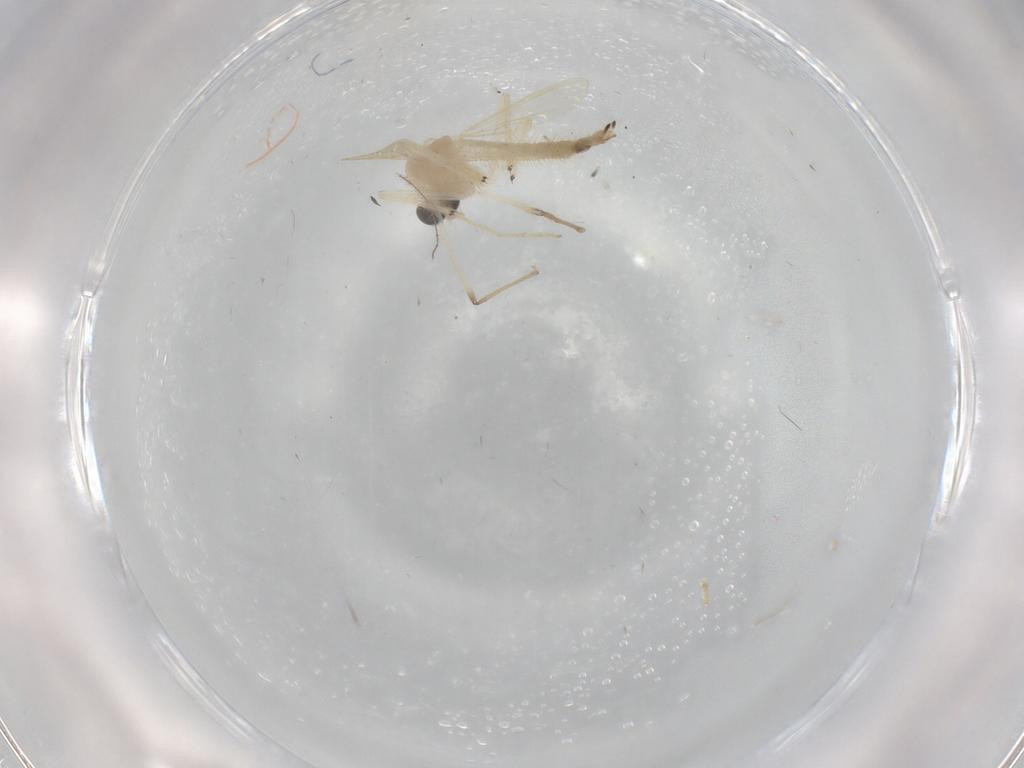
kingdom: Animalia
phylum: Arthropoda
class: Insecta
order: Diptera
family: Chironomidae
